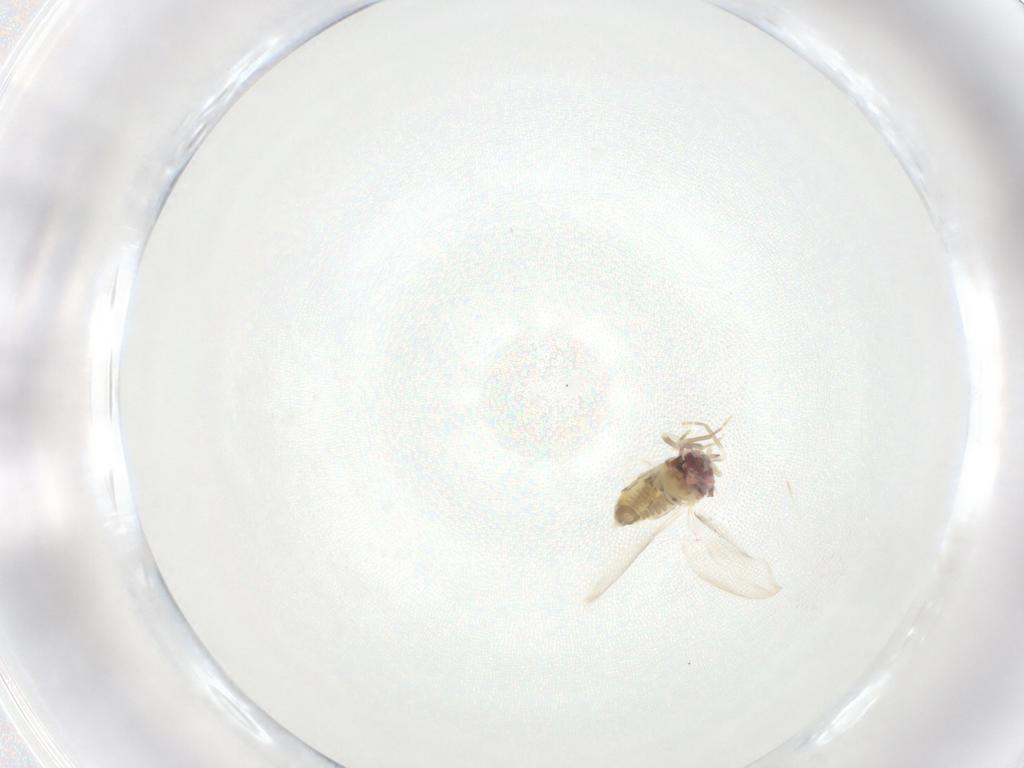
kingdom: Animalia
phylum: Arthropoda
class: Insecta
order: Hemiptera
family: Aleyrodidae
